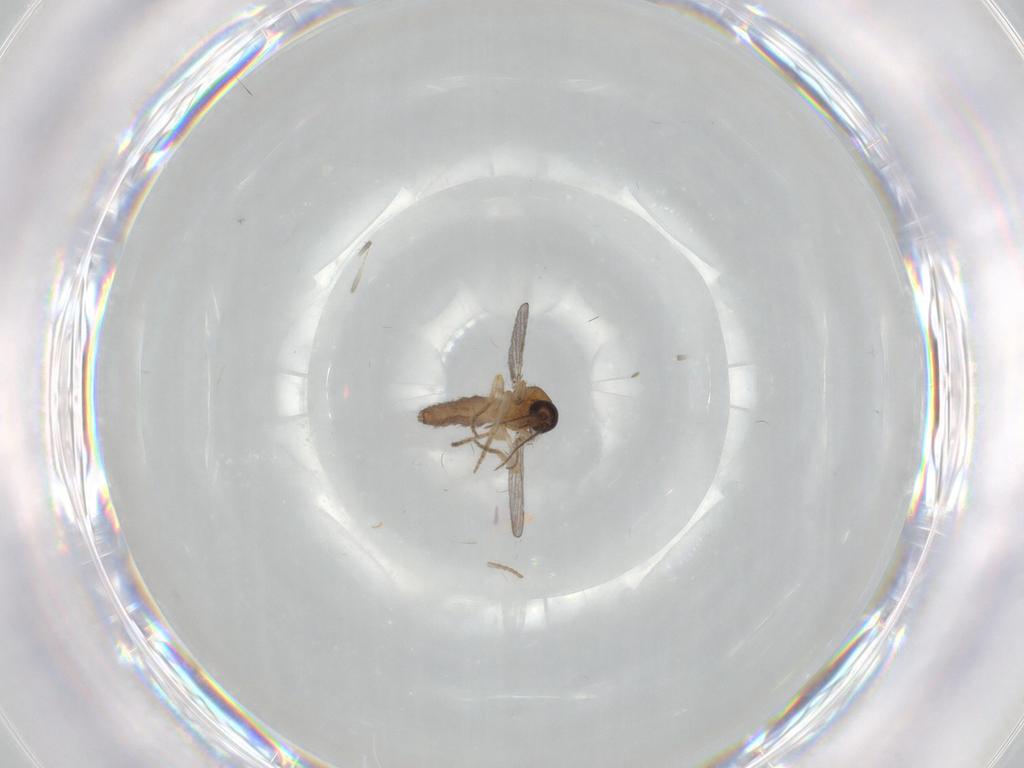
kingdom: Animalia
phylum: Arthropoda
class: Insecta
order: Diptera
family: Ceratopogonidae
